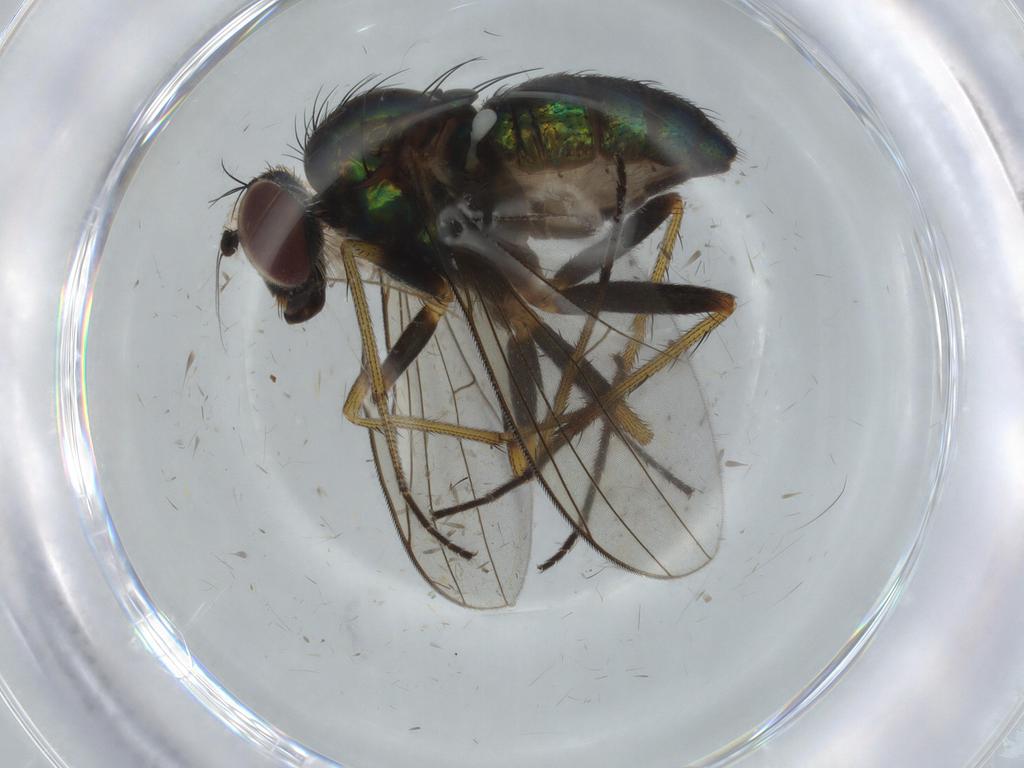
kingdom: Animalia
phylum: Arthropoda
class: Insecta
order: Diptera
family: Dolichopodidae
